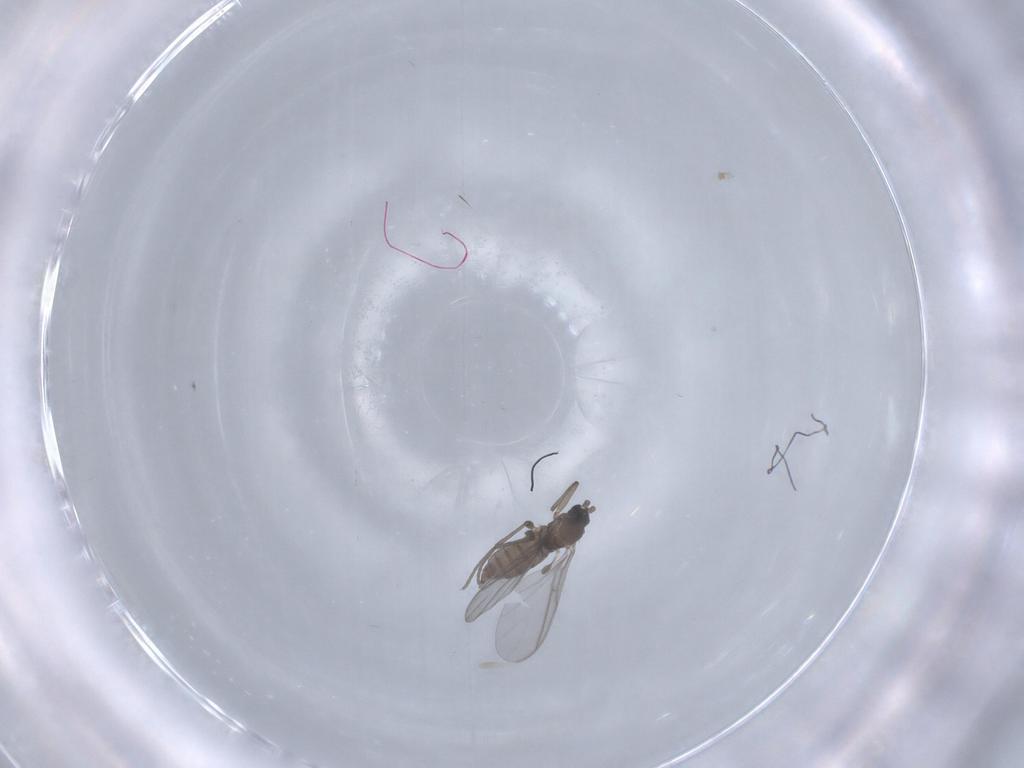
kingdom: Animalia
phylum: Arthropoda
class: Insecta
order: Diptera
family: Sciaridae
